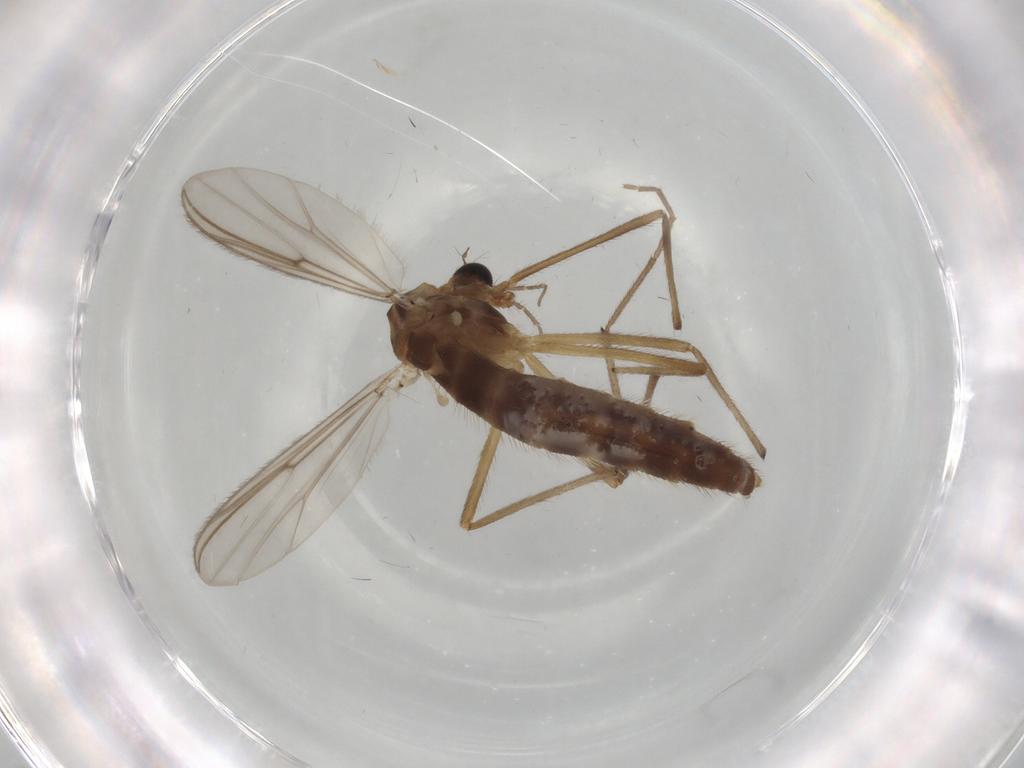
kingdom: Animalia
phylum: Arthropoda
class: Insecta
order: Diptera
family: Chironomidae
